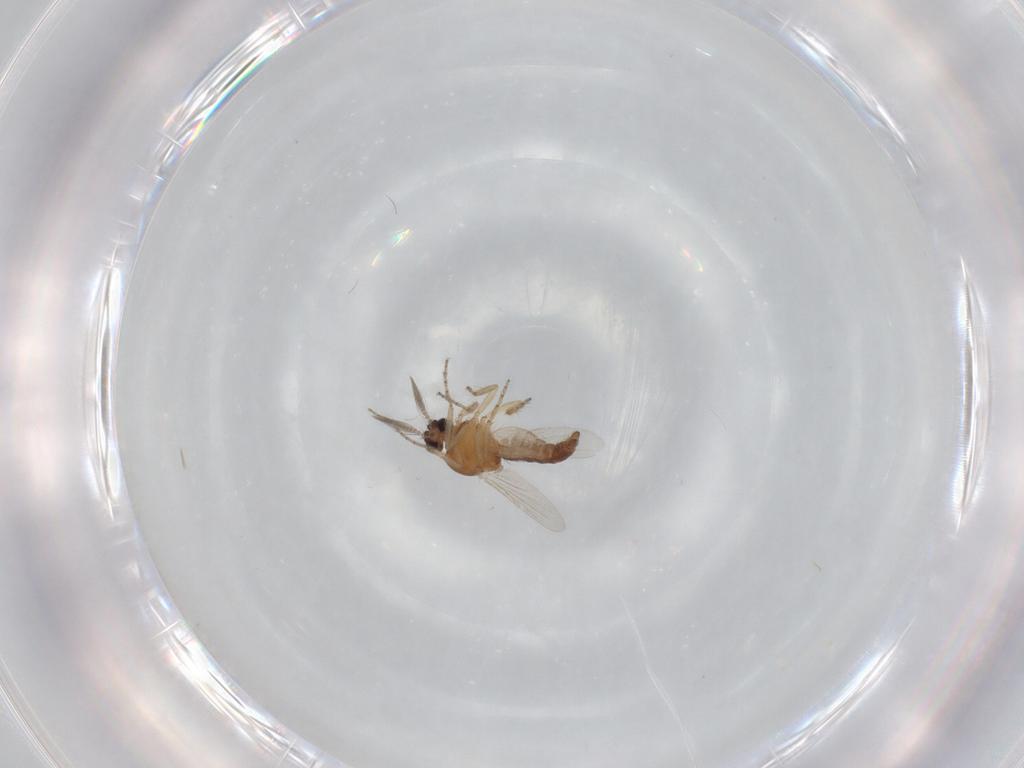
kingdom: Animalia
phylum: Arthropoda
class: Insecta
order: Diptera
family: Ceratopogonidae
